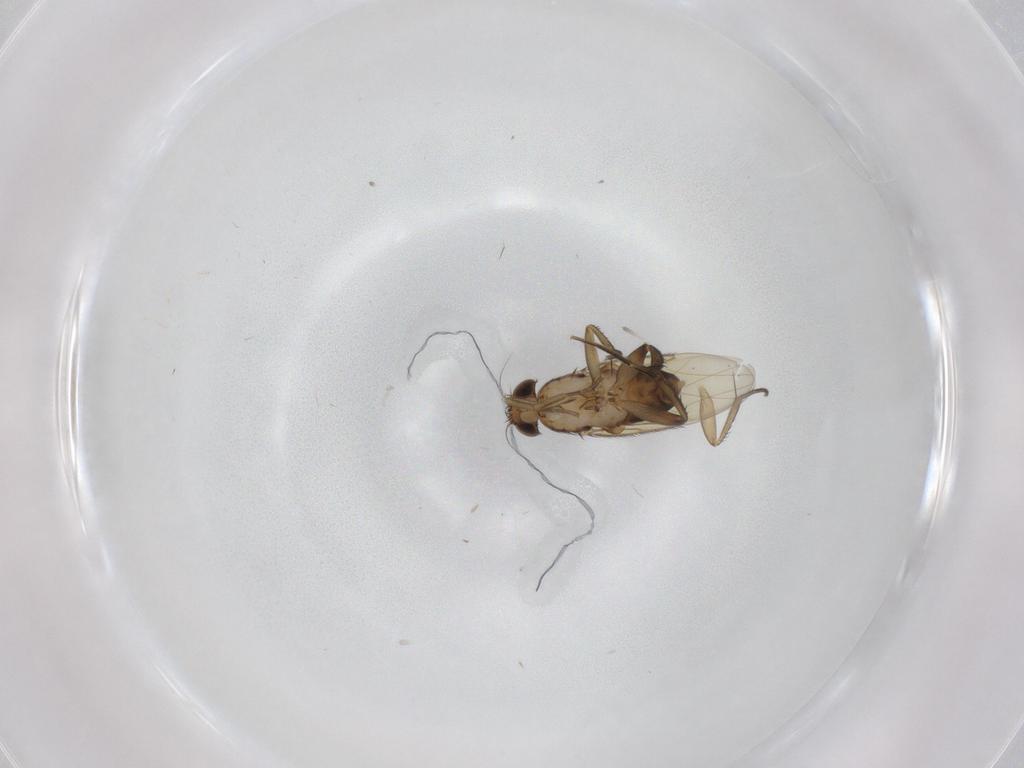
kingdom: Animalia
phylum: Arthropoda
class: Insecta
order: Diptera
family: Phoridae
